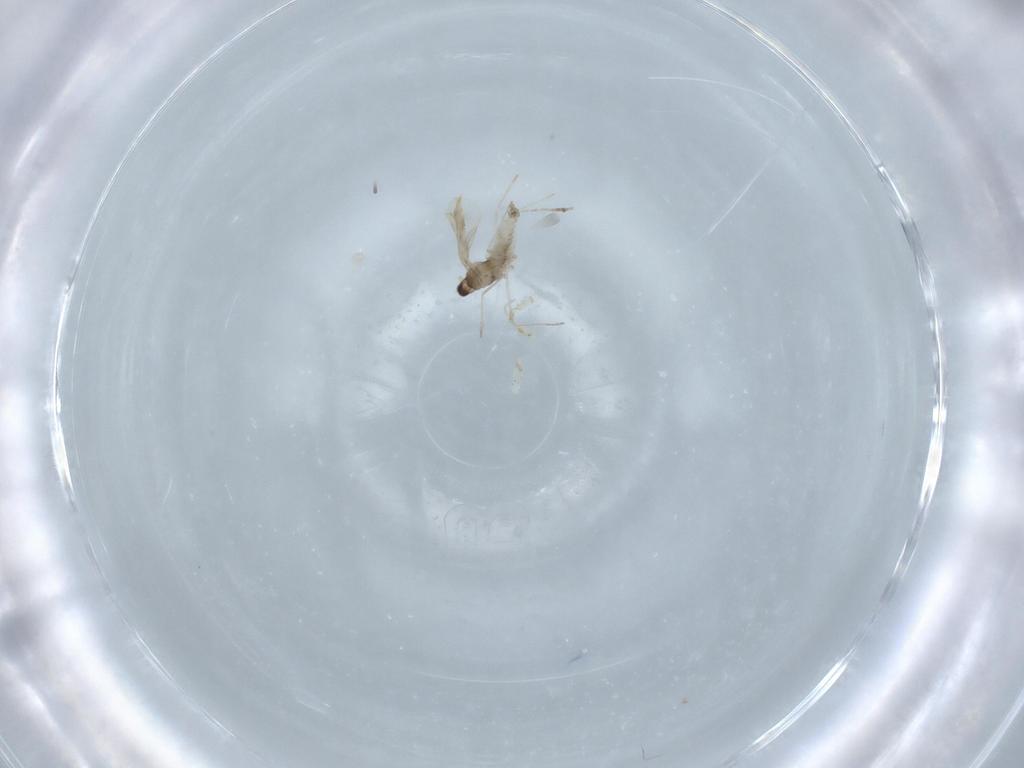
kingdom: Animalia
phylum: Arthropoda
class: Insecta
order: Diptera
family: Cecidomyiidae
